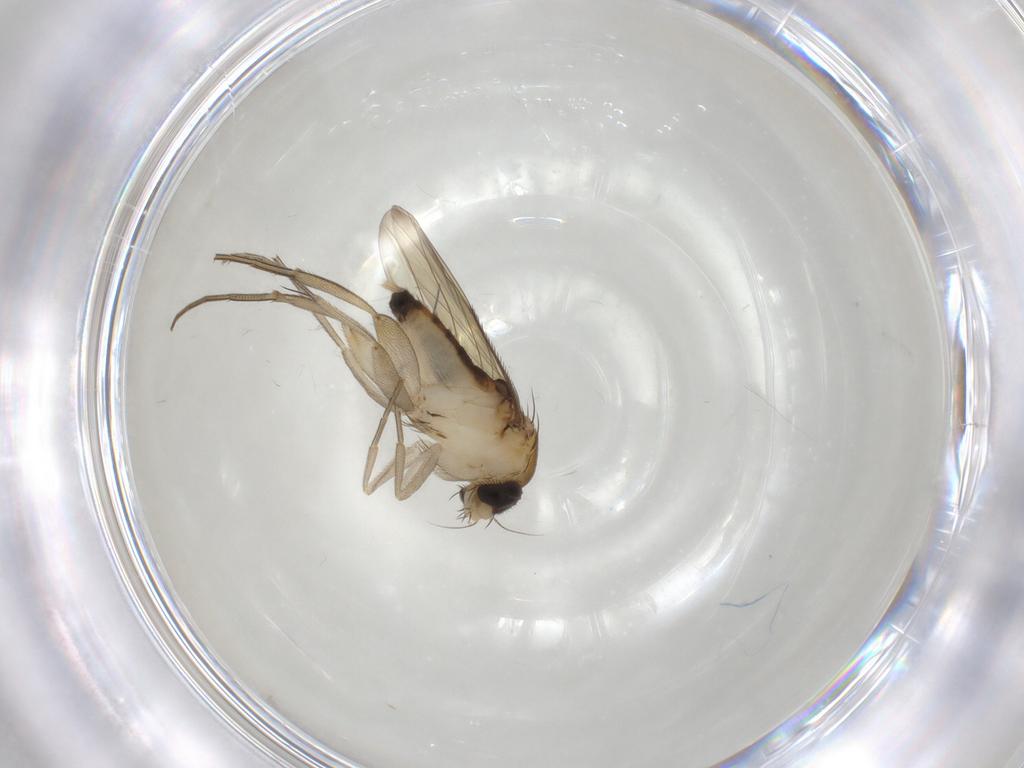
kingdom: Animalia
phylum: Arthropoda
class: Insecta
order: Diptera
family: Phoridae
